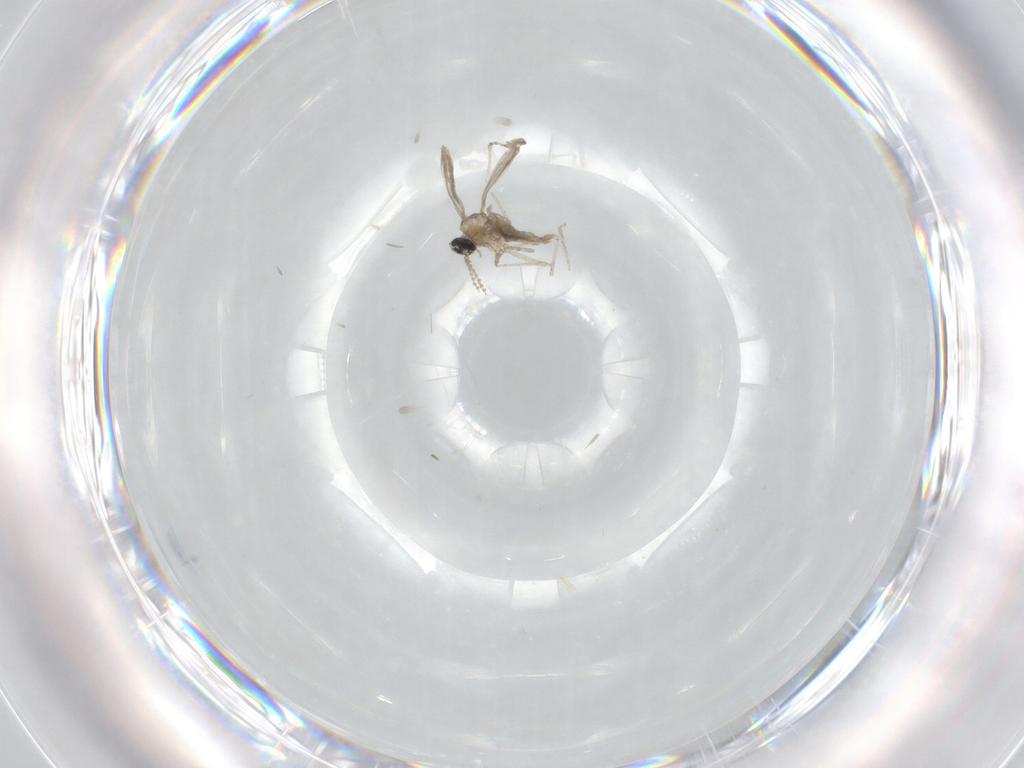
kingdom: Animalia
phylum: Arthropoda
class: Insecta
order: Diptera
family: Cecidomyiidae
